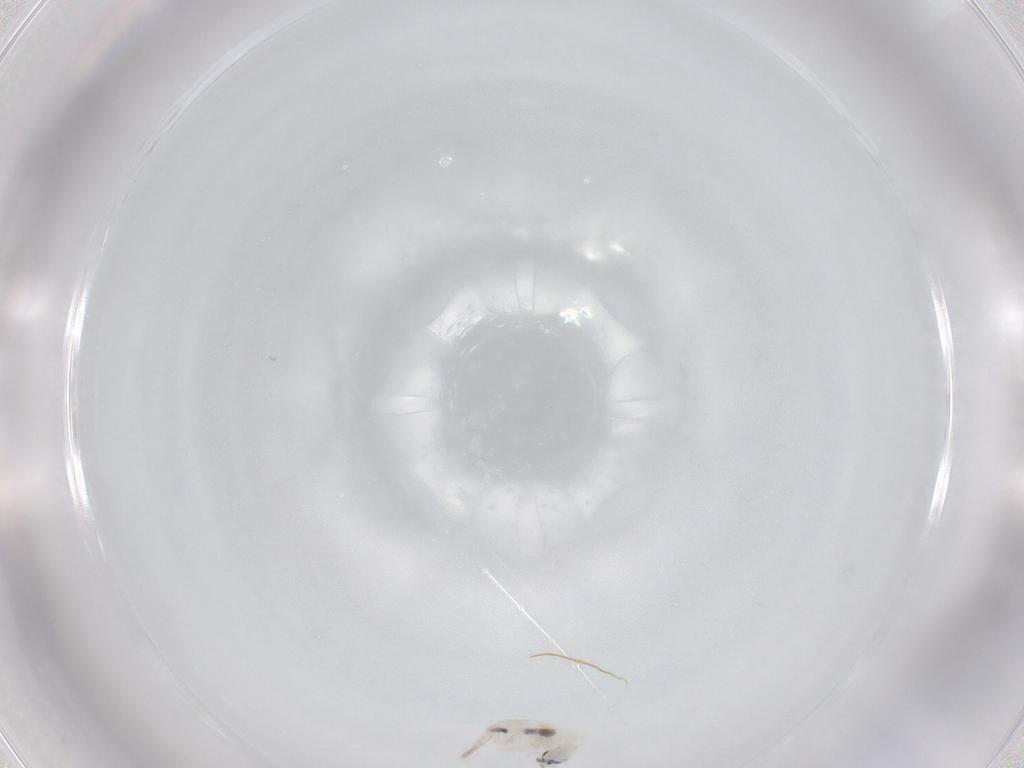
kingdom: Animalia
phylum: Arthropoda
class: Collembola
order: Entomobryomorpha
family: Entomobryidae
